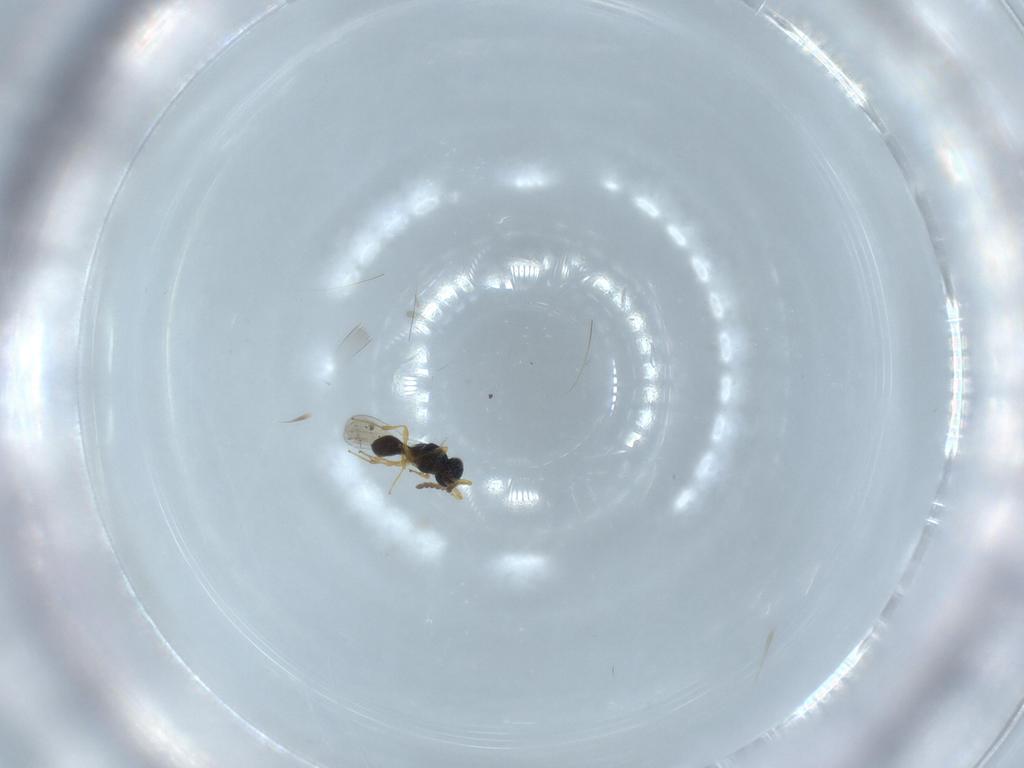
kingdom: Animalia
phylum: Arthropoda
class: Insecta
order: Hymenoptera
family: Platygastridae
